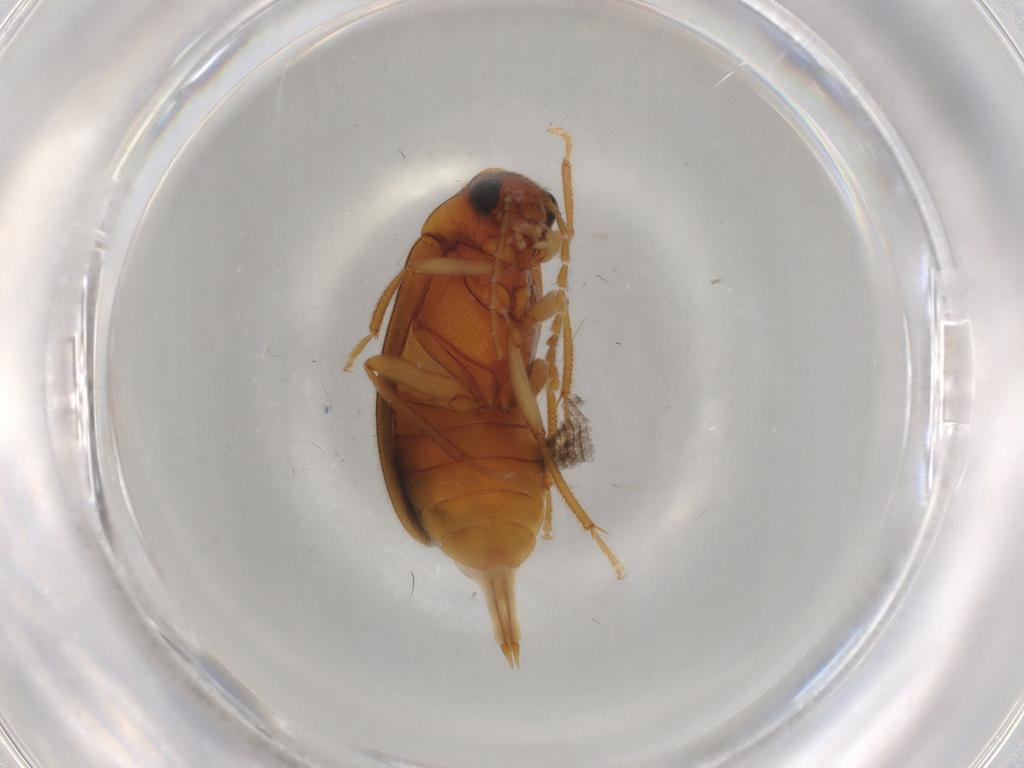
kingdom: Animalia
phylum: Arthropoda
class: Insecta
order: Coleoptera
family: Ptilodactylidae
